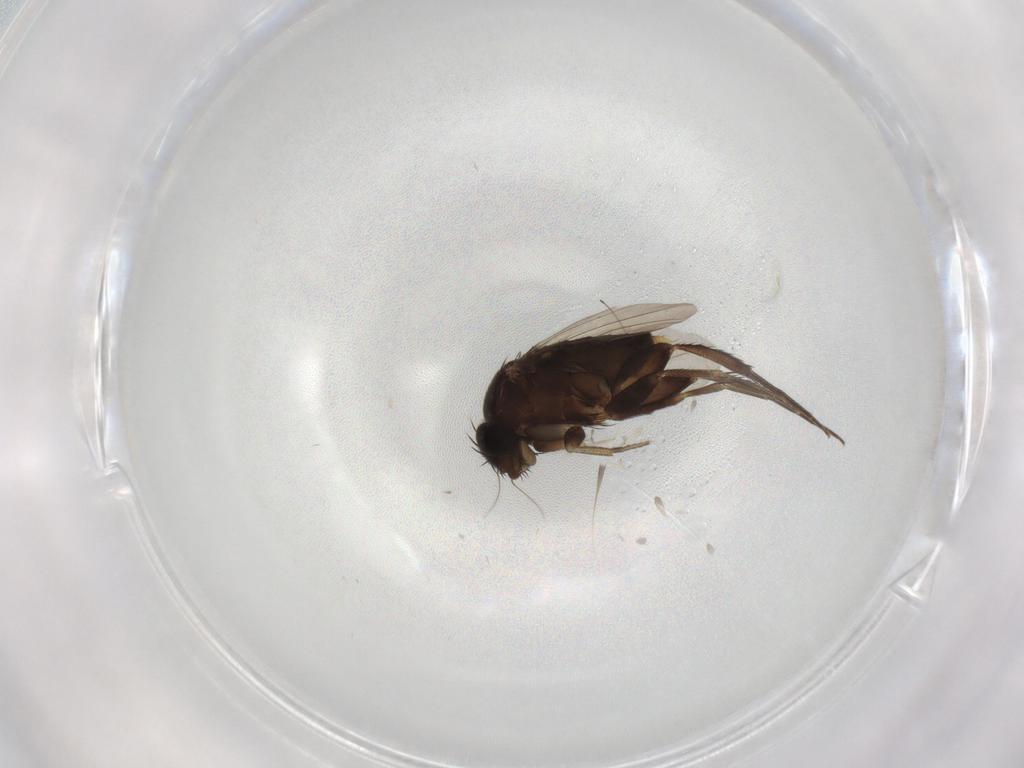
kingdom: Animalia
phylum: Arthropoda
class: Insecta
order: Diptera
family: Phoridae
